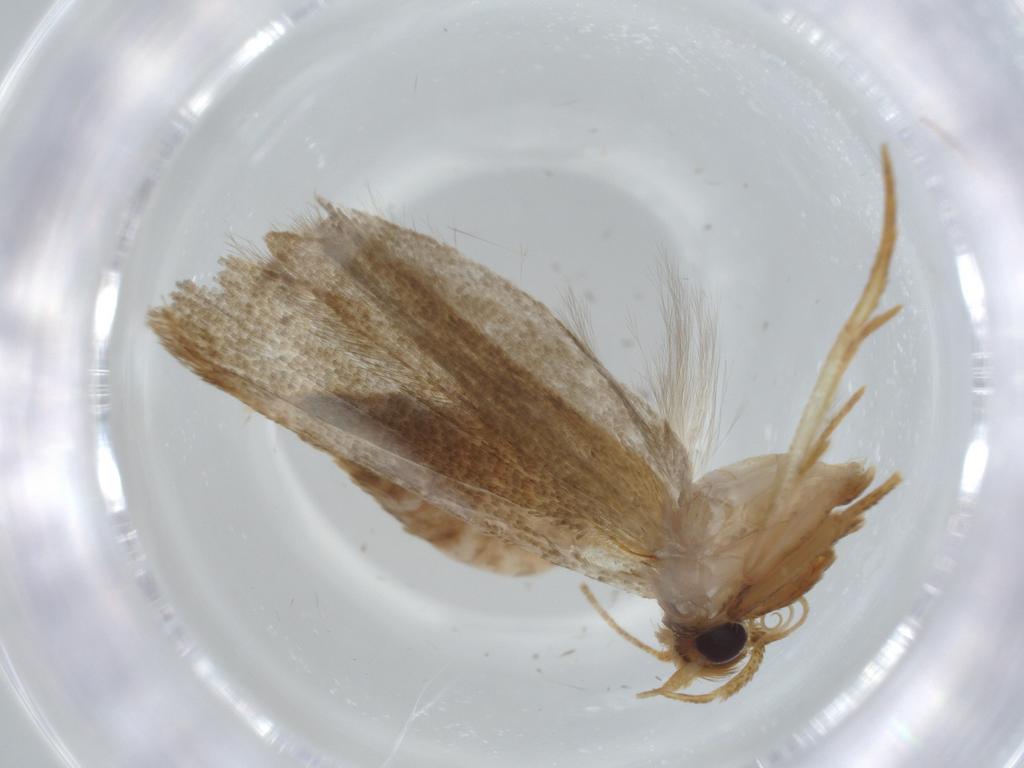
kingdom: Animalia
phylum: Arthropoda
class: Insecta
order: Lepidoptera
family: Coleophoridae
